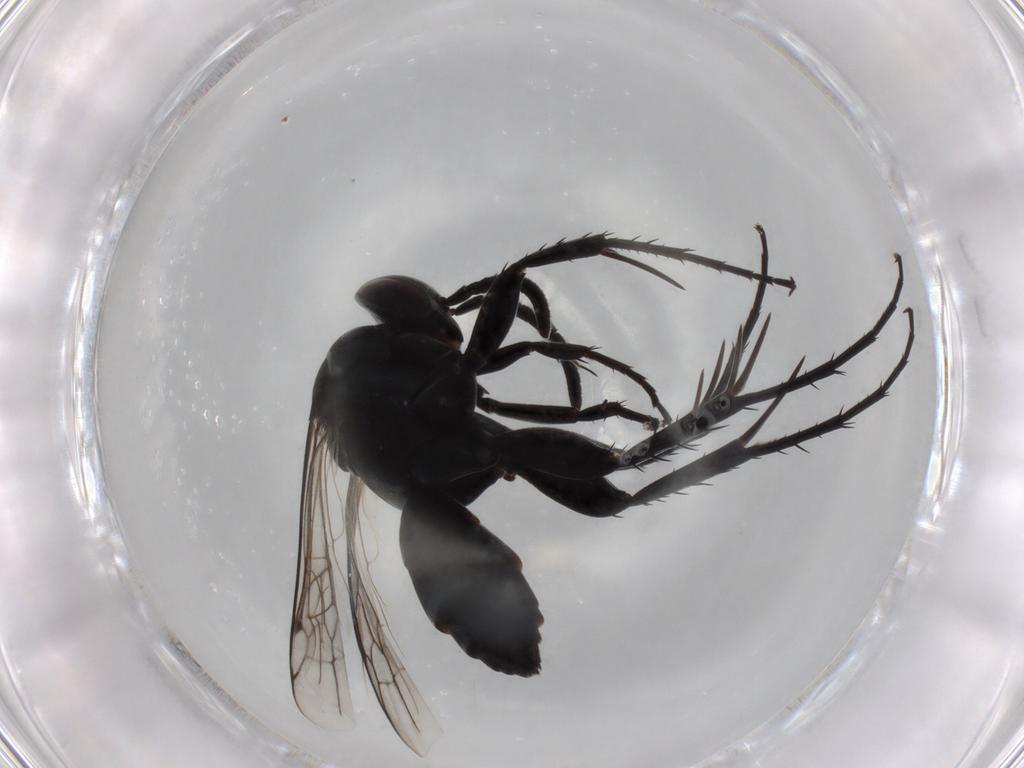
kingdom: Animalia
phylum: Arthropoda
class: Insecta
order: Hymenoptera
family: Pompilidae
